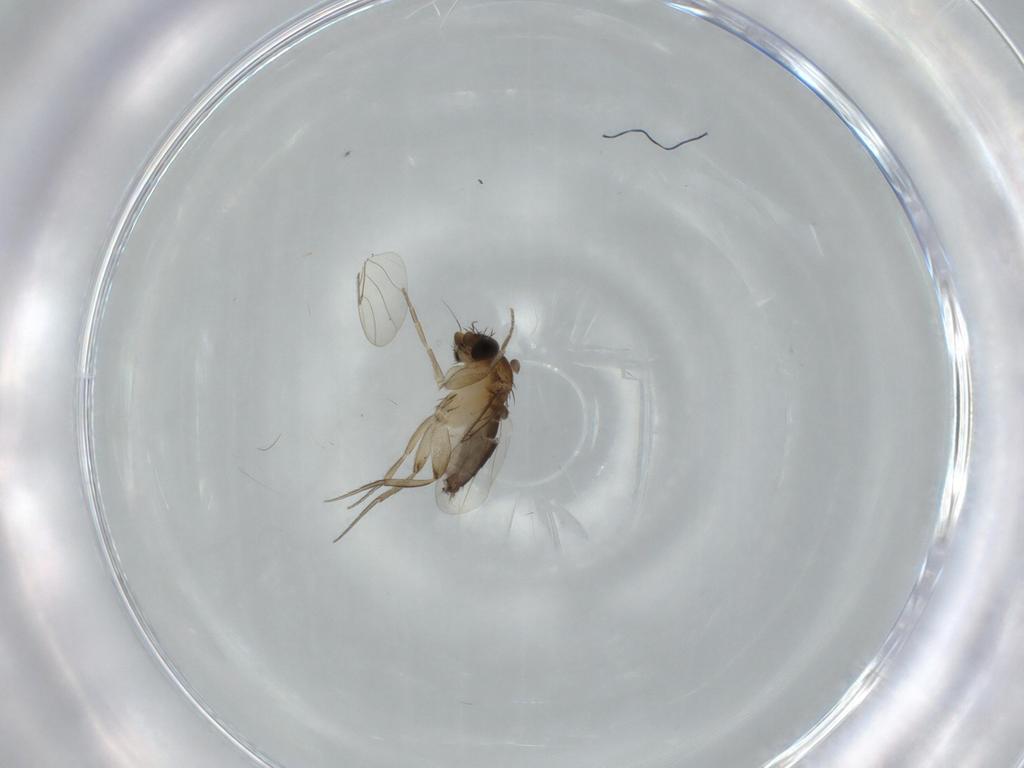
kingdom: Animalia
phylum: Arthropoda
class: Insecta
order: Diptera
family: Phoridae
